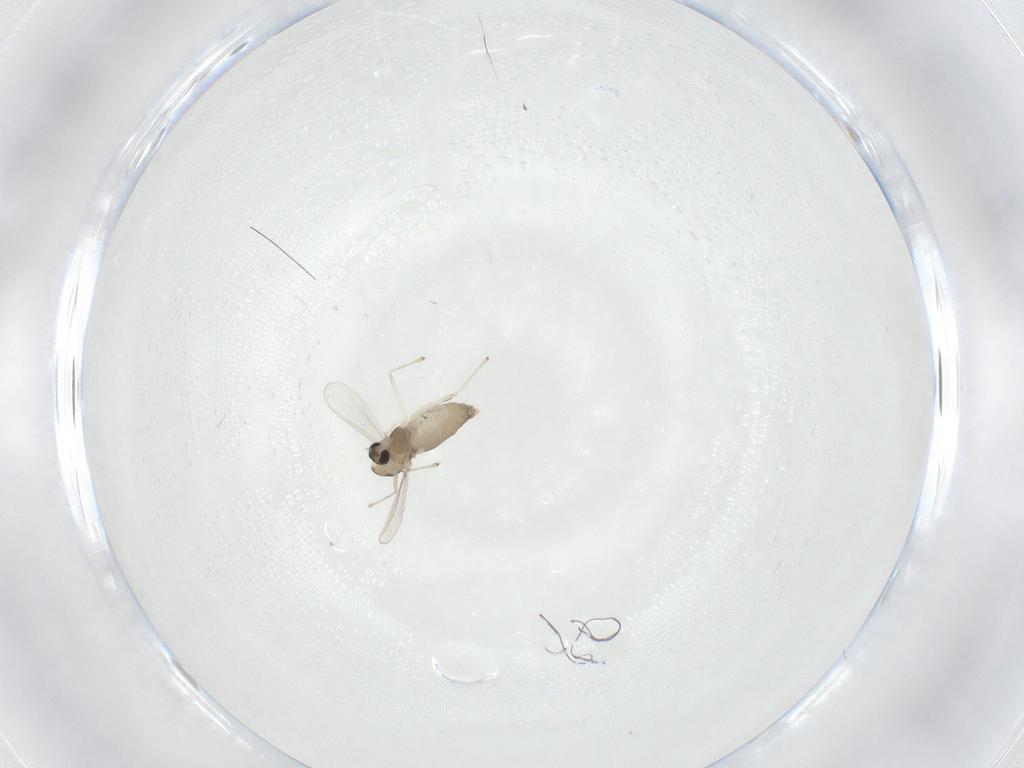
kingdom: Animalia
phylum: Arthropoda
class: Insecta
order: Diptera
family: Chironomidae
